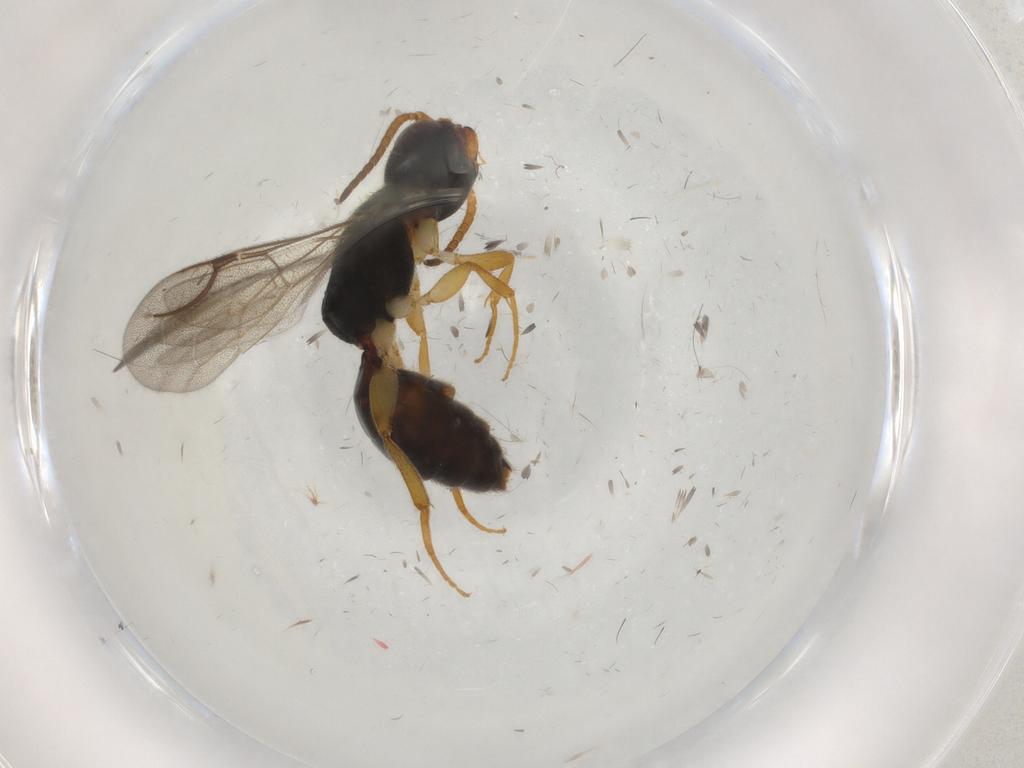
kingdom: Animalia
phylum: Arthropoda
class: Insecta
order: Hymenoptera
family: Bethylidae
